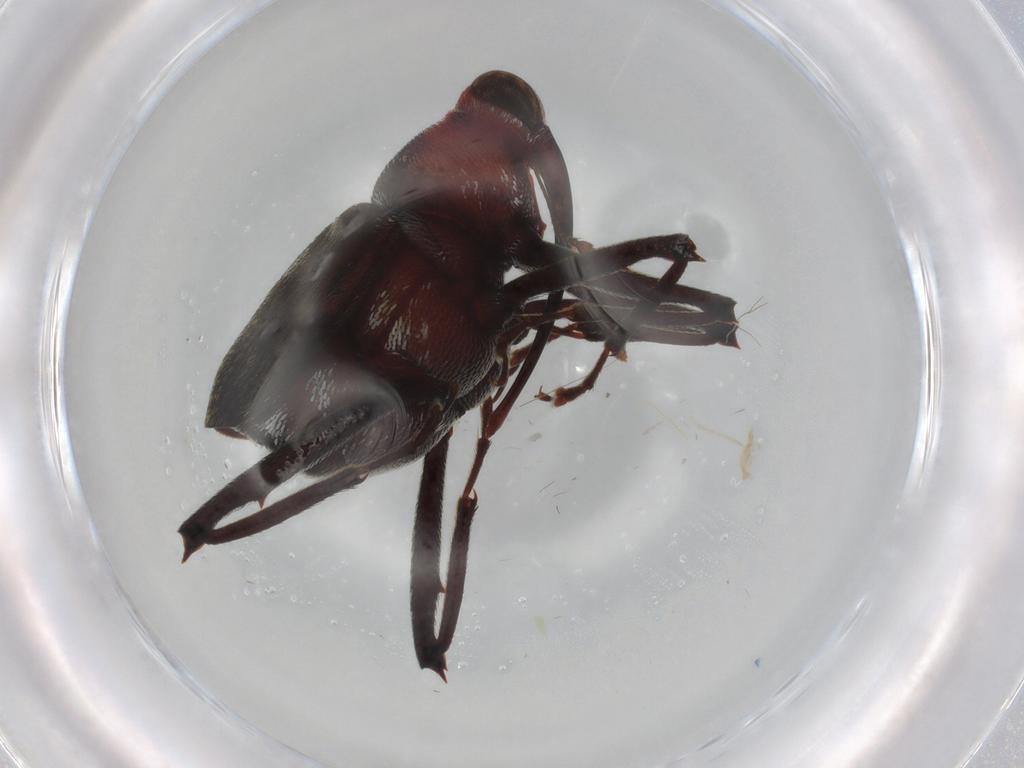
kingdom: Animalia
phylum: Arthropoda
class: Insecta
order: Coleoptera
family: Curculionidae
